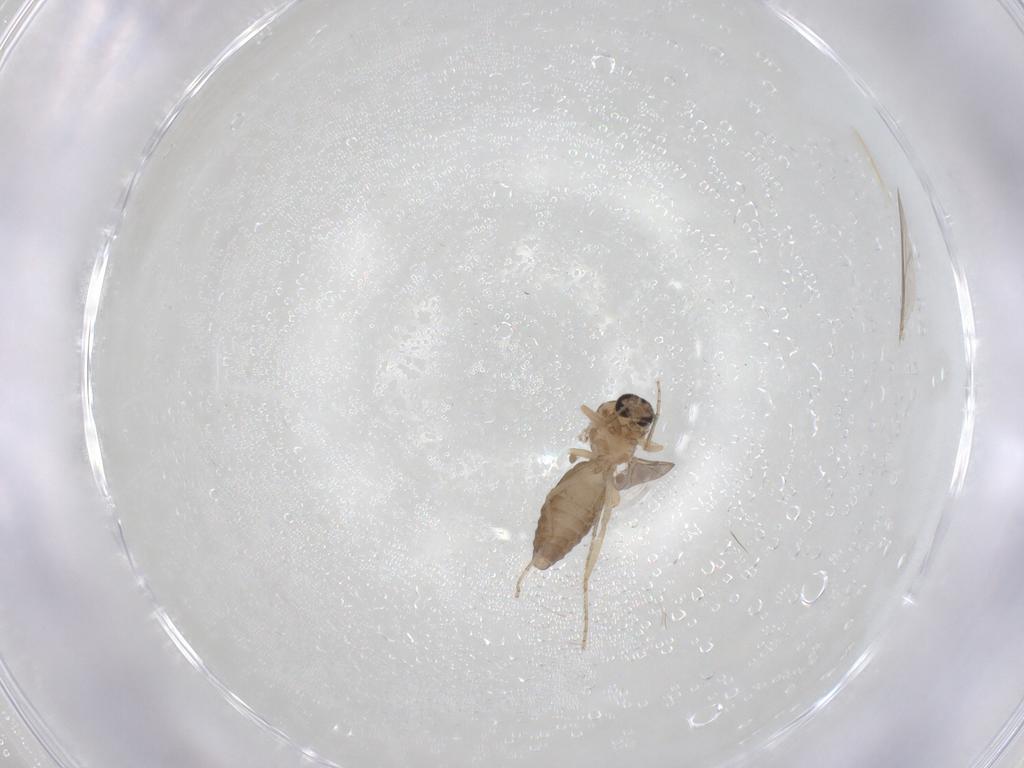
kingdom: Animalia
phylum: Arthropoda
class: Insecta
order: Diptera
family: Ceratopogonidae
